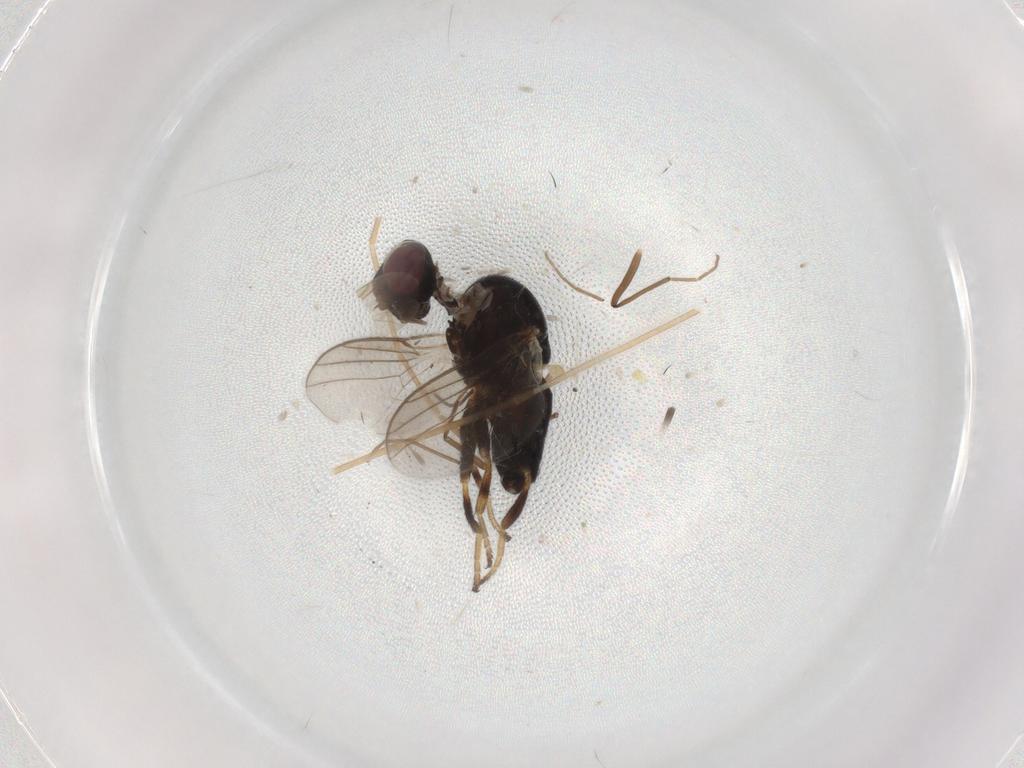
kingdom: Animalia
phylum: Arthropoda
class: Insecta
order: Diptera
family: Chloropidae
